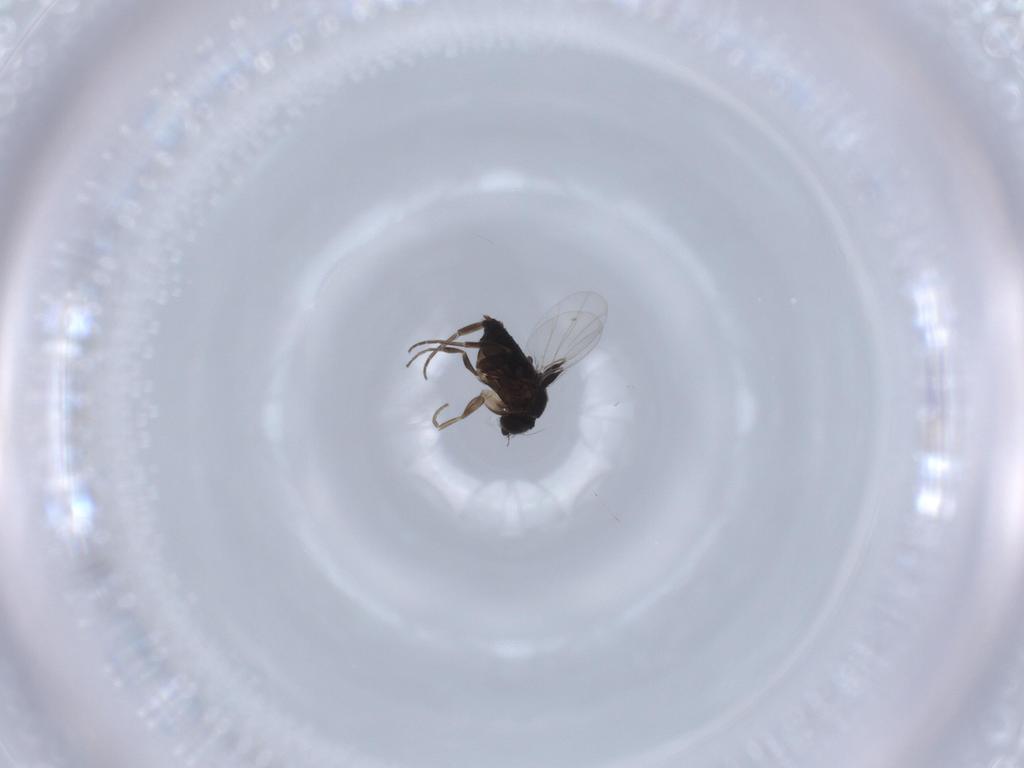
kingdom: Animalia
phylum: Arthropoda
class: Insecta
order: Diptera
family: Phoridae
